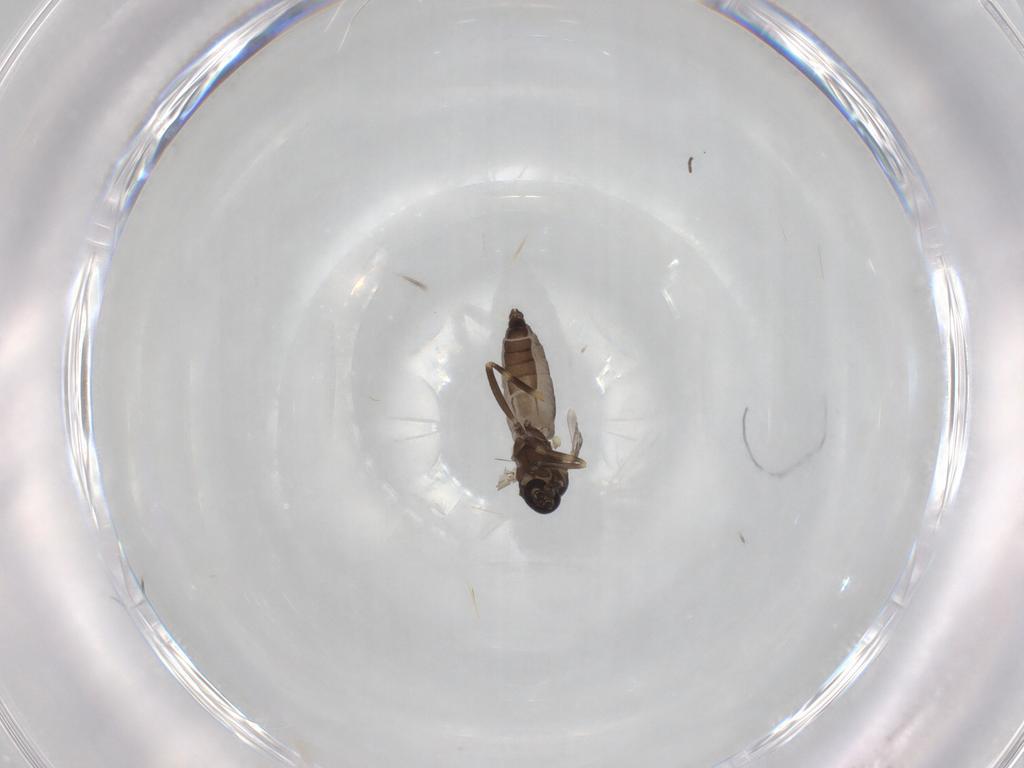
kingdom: Animalia
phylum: Arthropoda
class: Insecta
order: Diptera
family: Ceratopogonidae
